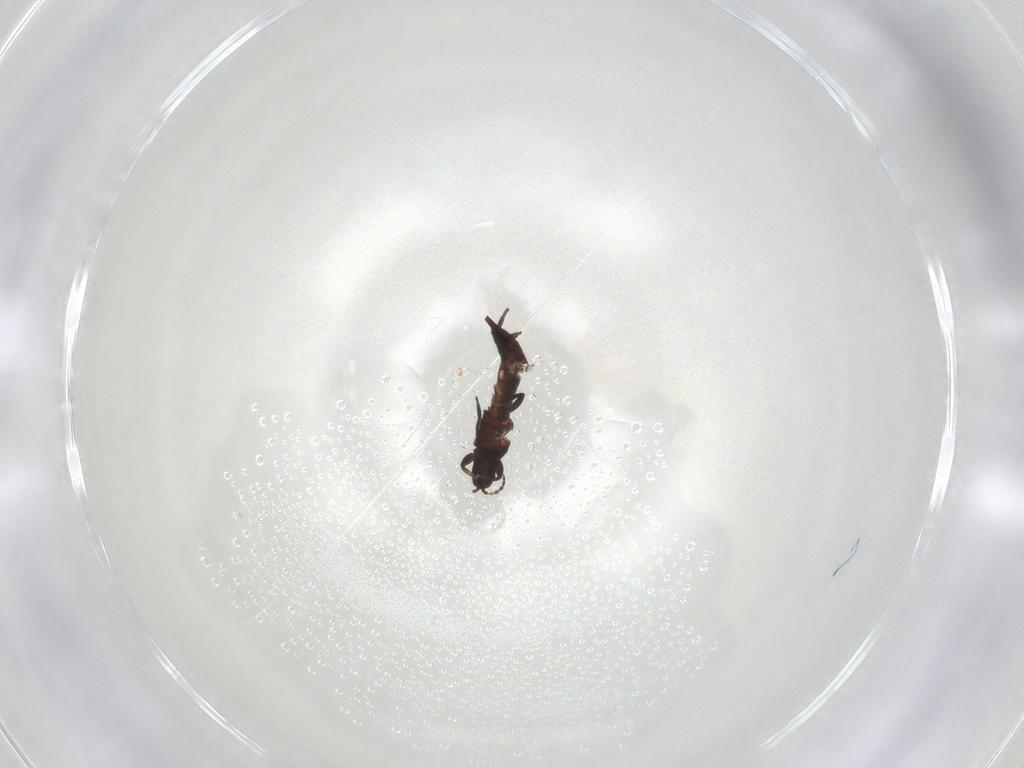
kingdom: Animalia
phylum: Arthropoda
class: Insecta
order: Thysanoptera
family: Phlaeothripidae
